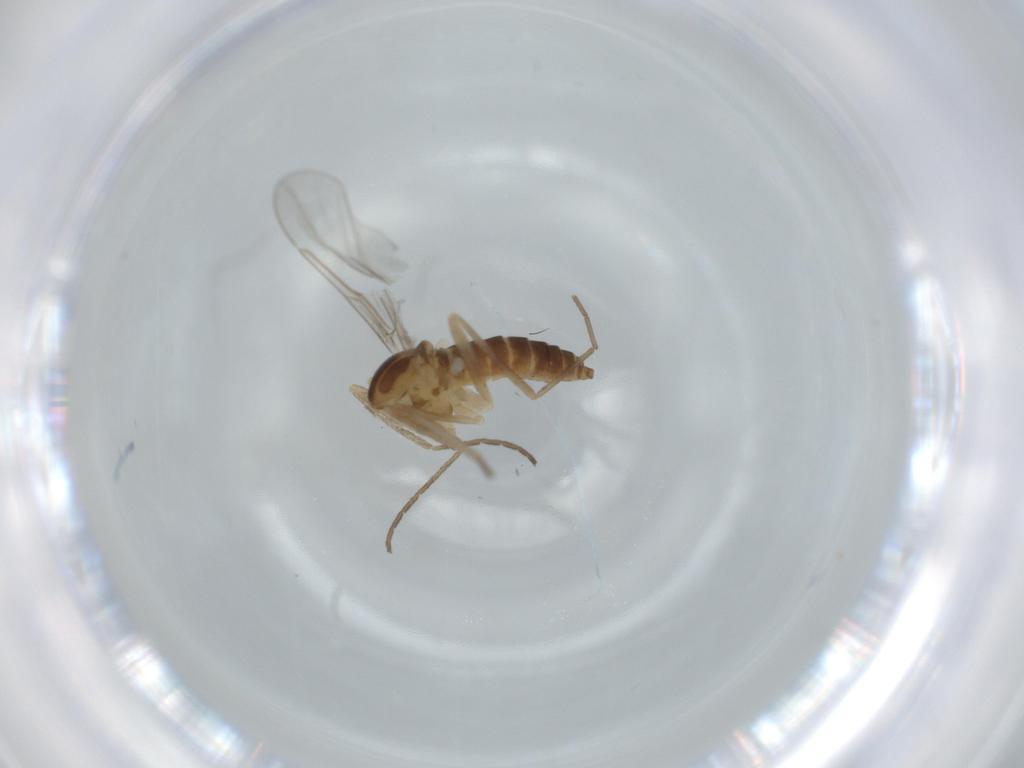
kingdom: Animalia
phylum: Arthropoda
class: Insecta
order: Diptera
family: Cecidomyiidae
